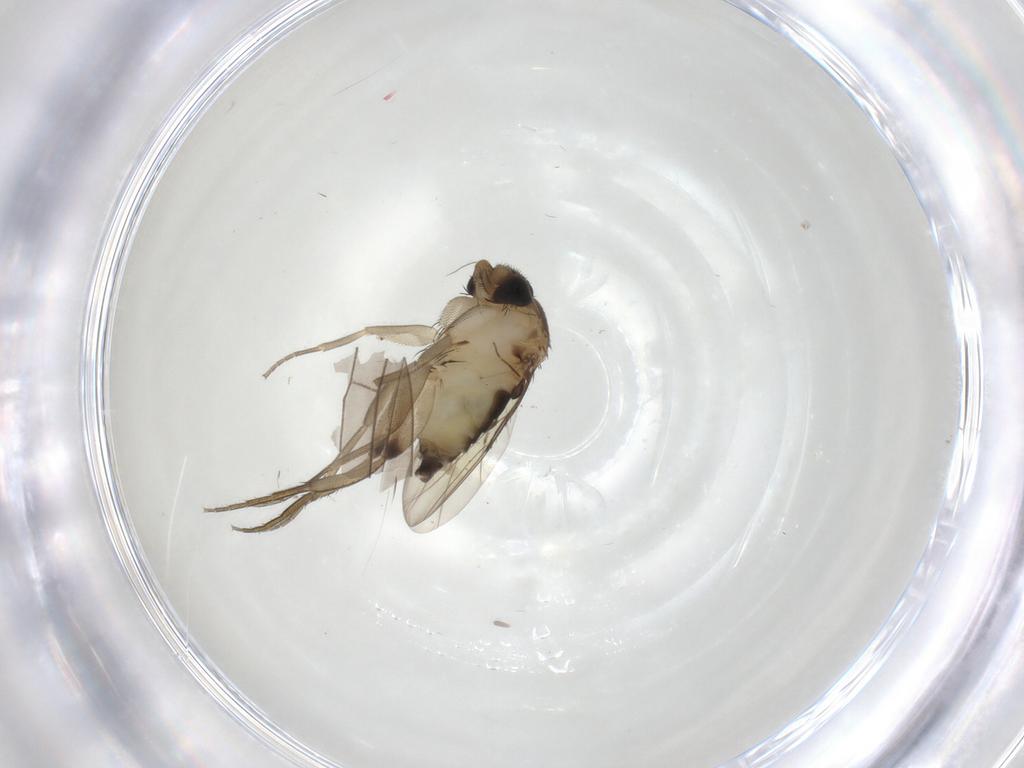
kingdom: Animalia
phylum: Arthropoda
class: Insecta
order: Diptera
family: Phoridae
